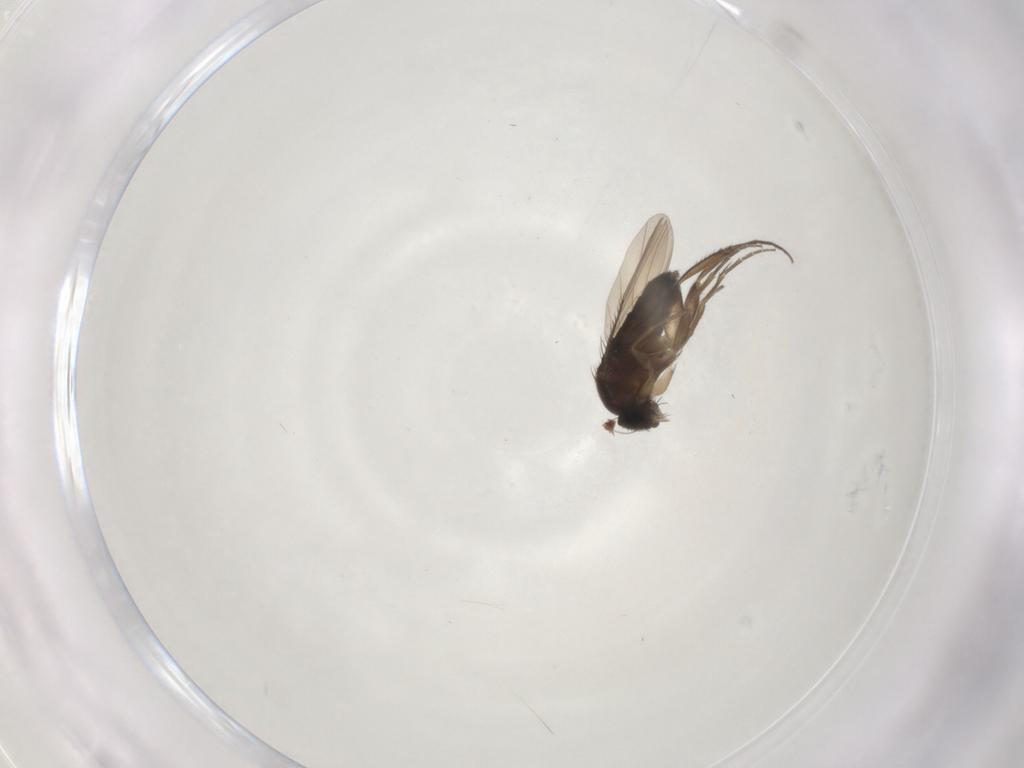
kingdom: Animalia
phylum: Arthropoda
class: Insecta
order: Diptera
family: Phoridae
